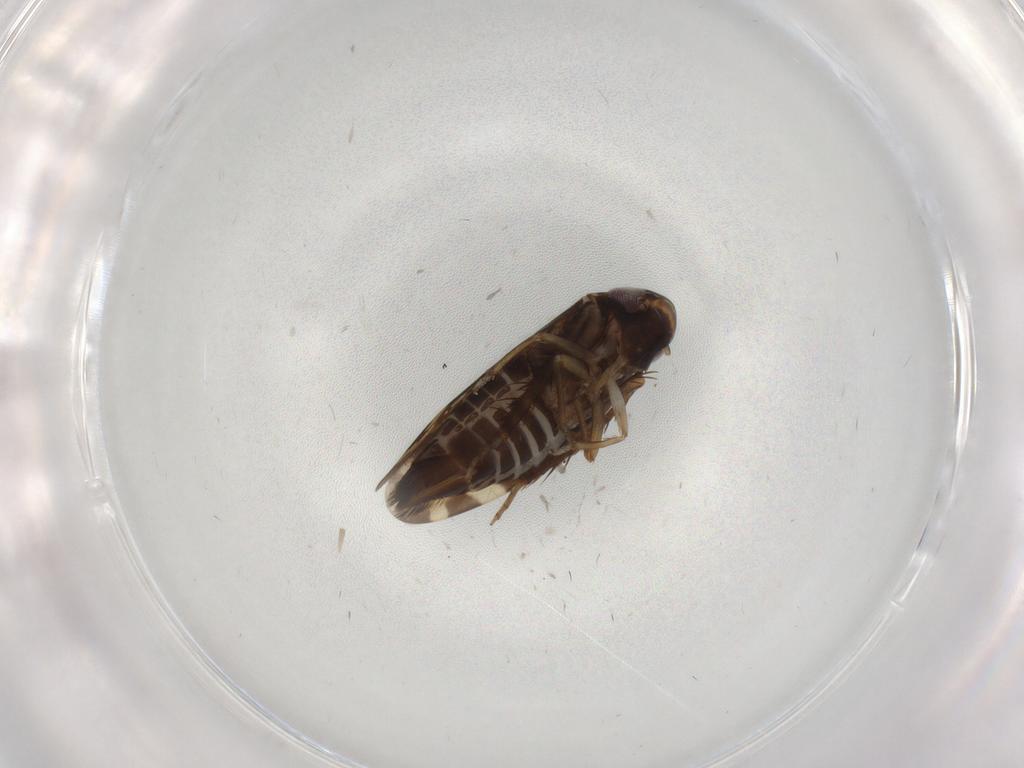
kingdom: Animalia
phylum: Arthropoda
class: Insecta
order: Hemiptera
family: Cicadellidae
